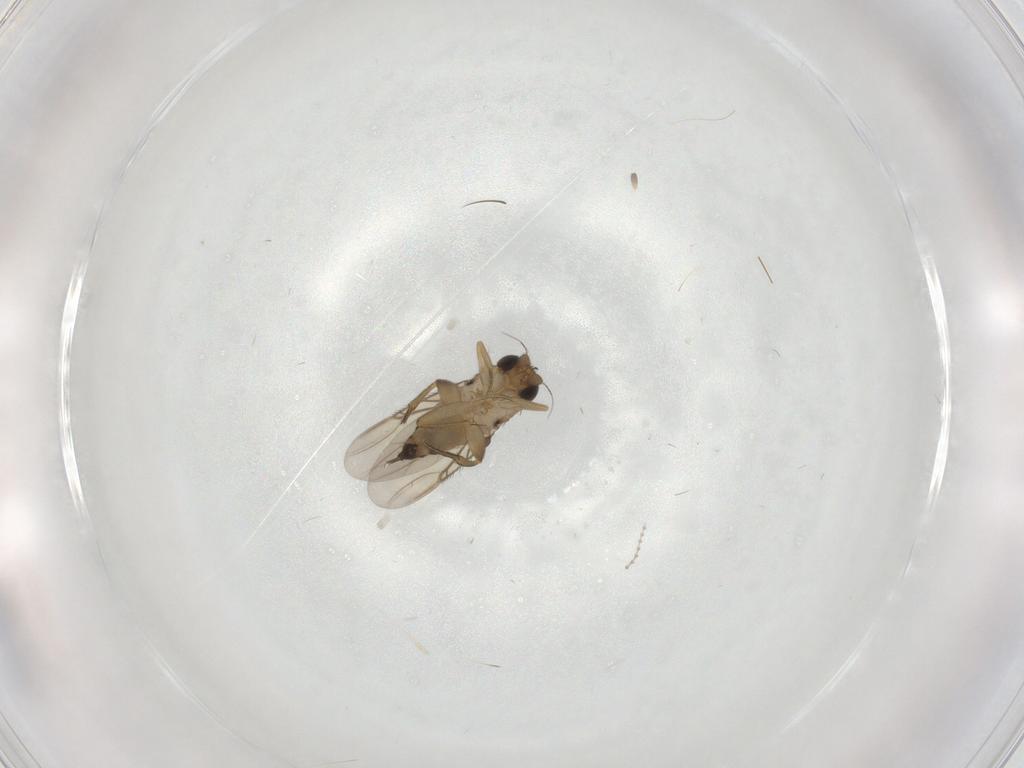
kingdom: Animalia
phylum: Arthropoda
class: Insecta
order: Diptera
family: Phoridae
